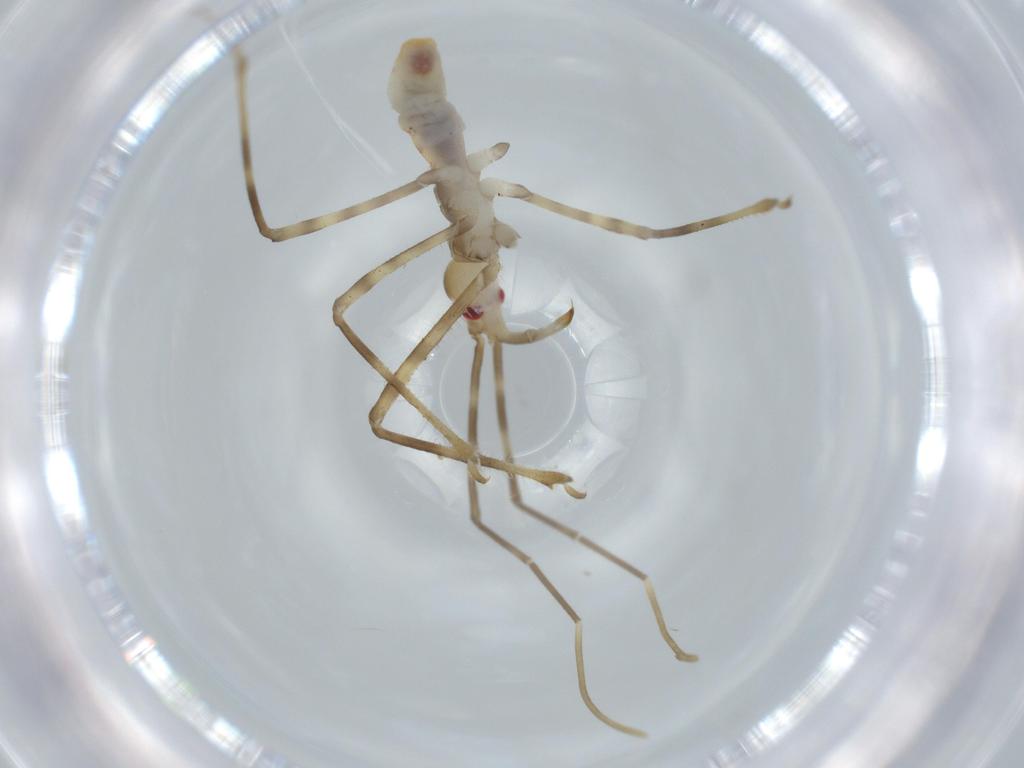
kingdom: Animalia
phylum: Arthropoda
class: Insecta
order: Hemiptera
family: Reduviidae
